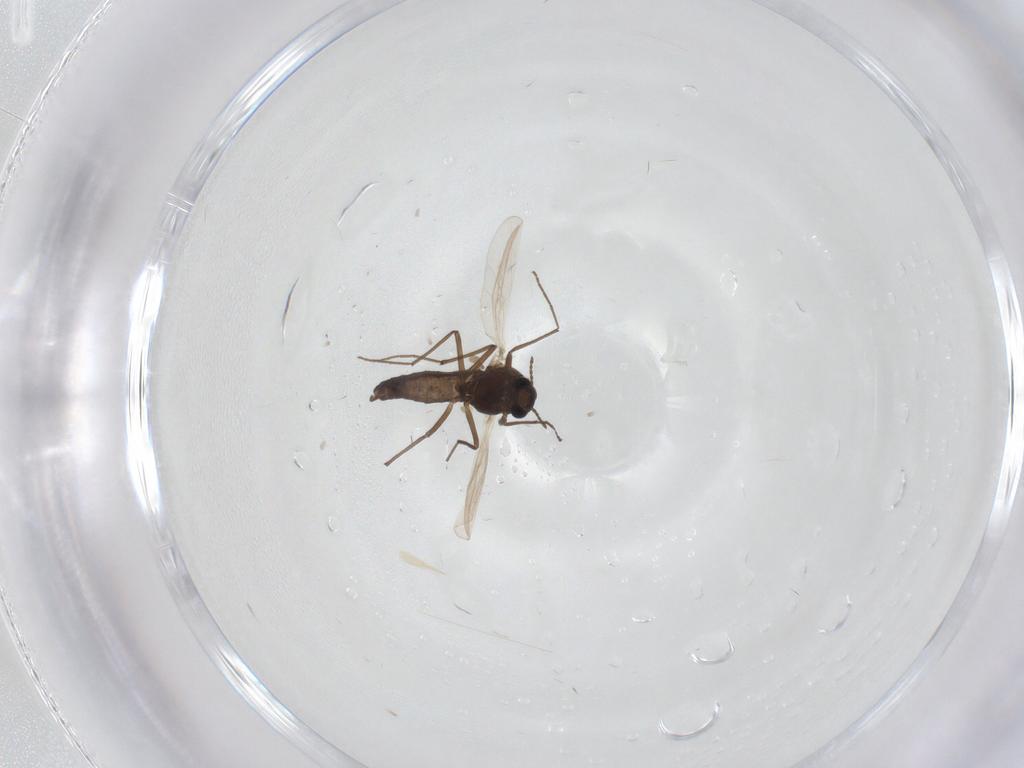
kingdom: Animalia
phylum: Arthropoda
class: Insecta
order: Diptera
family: Chironomidae
